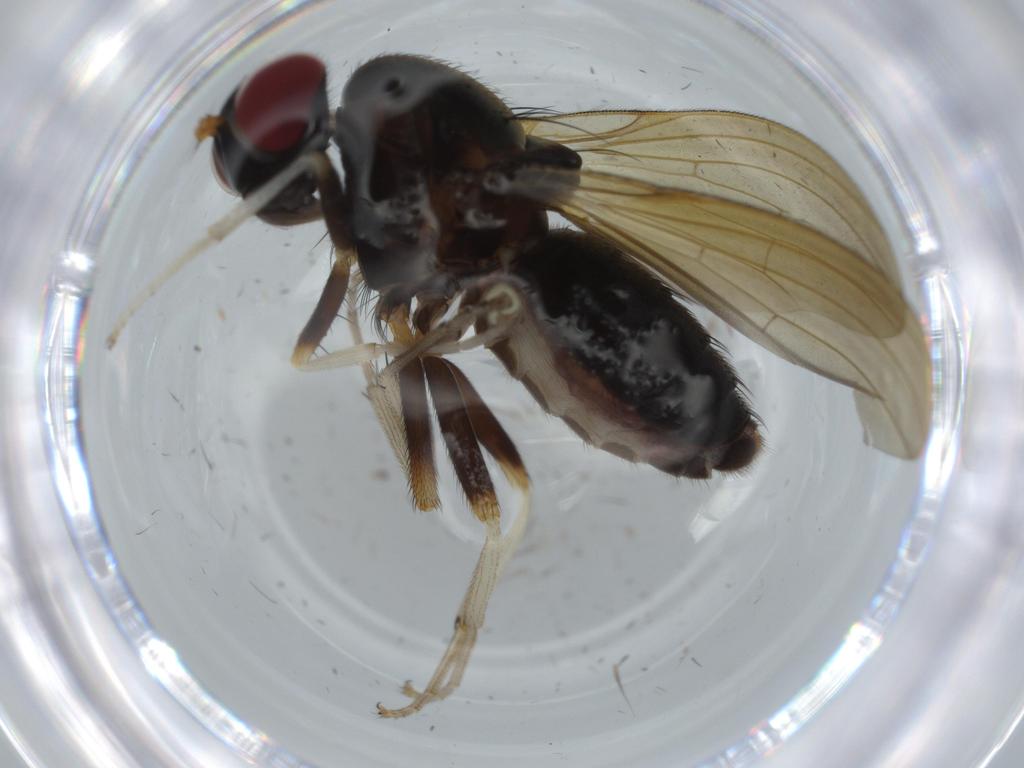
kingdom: Animalia
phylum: Arthropoda
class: Insecta
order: Diptera
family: Lauxaniidae
